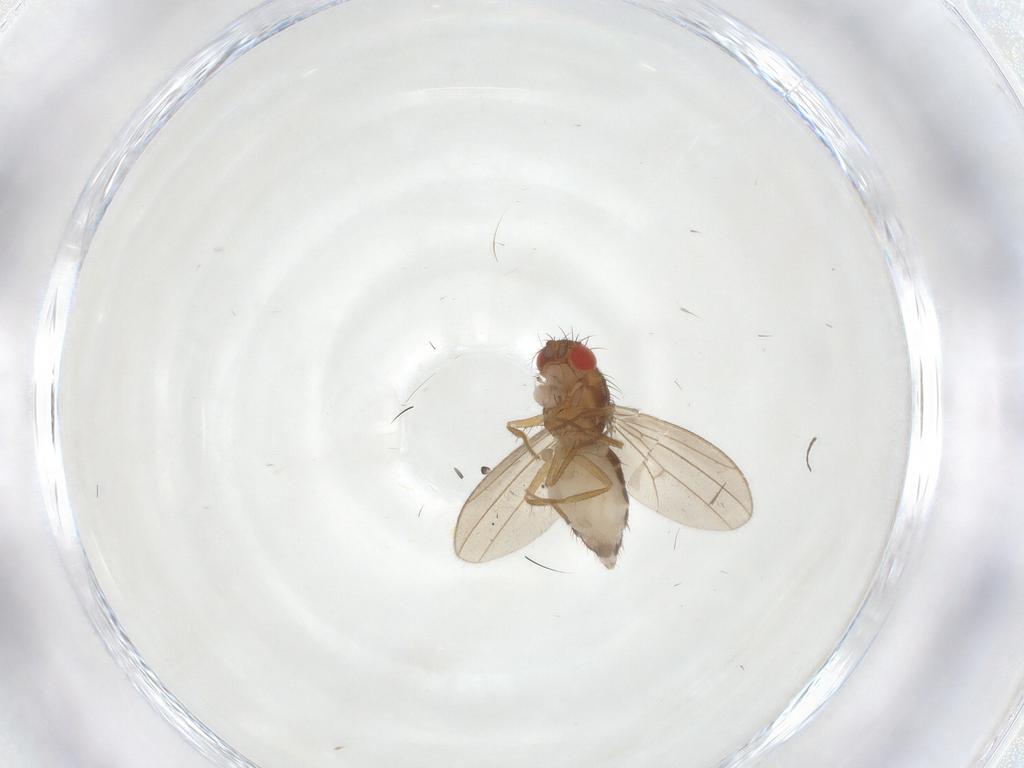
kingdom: Animalia
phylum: Arthropoda
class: Insecta
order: Diptera
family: Drosophilidae
